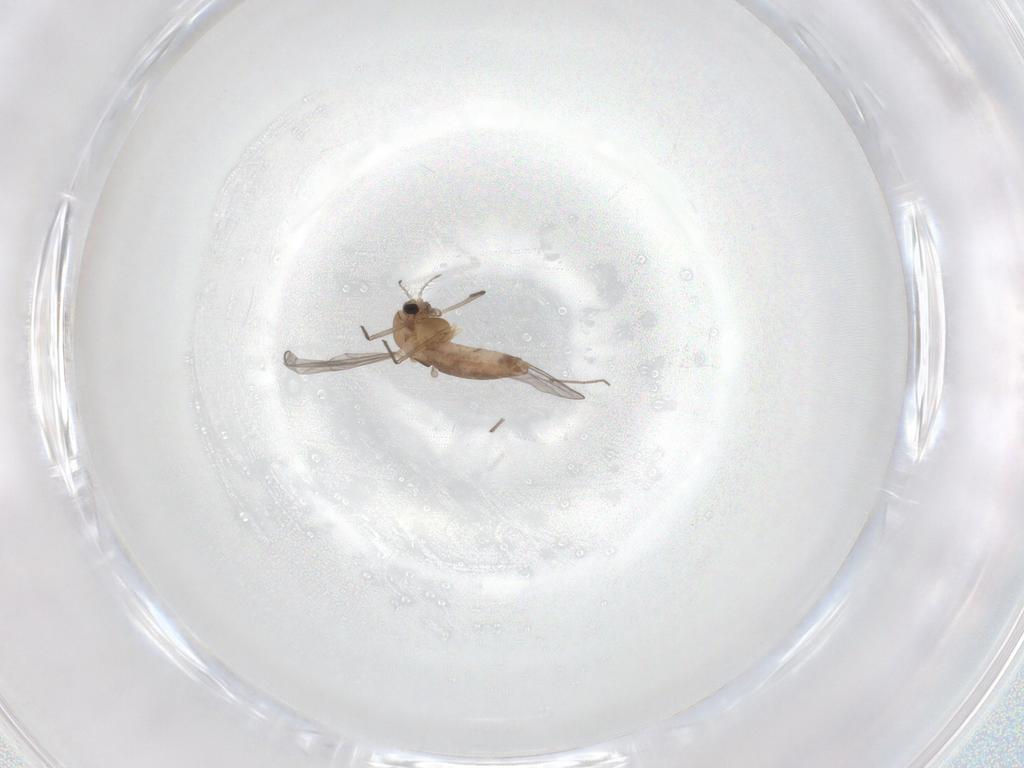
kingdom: Animalia
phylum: Arthropoda
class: Insecta
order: Diptera
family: Chironomidae
